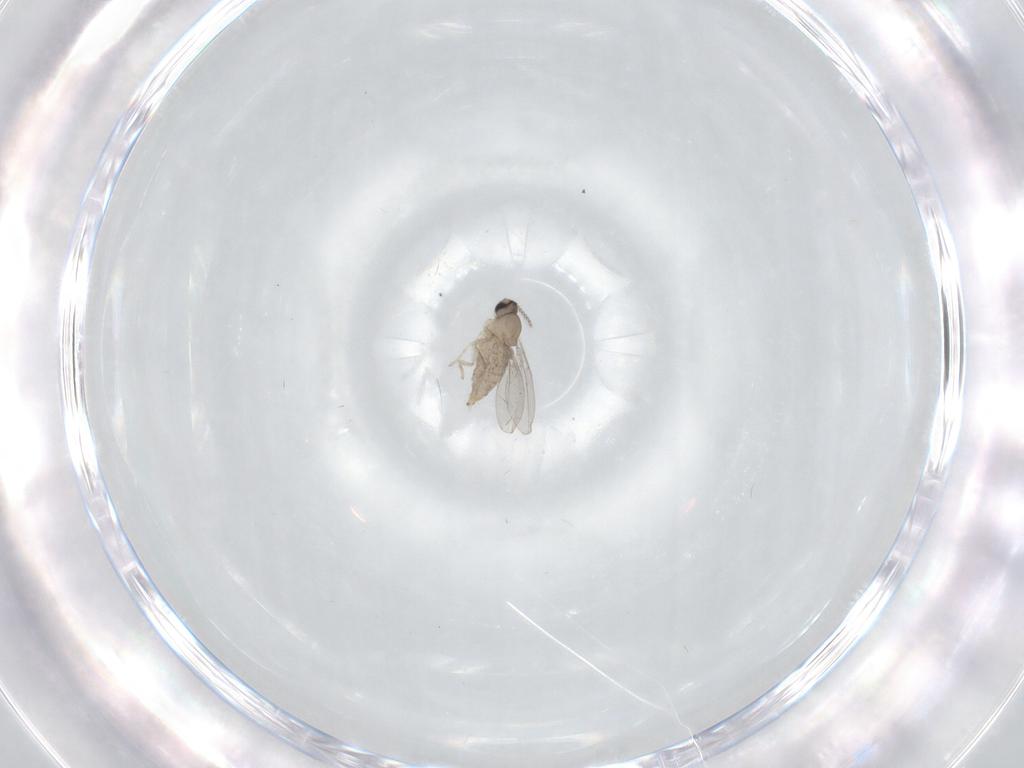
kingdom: Animalia
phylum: Arthropoda
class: Insecta
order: Diptera
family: Cecidomyiidae
